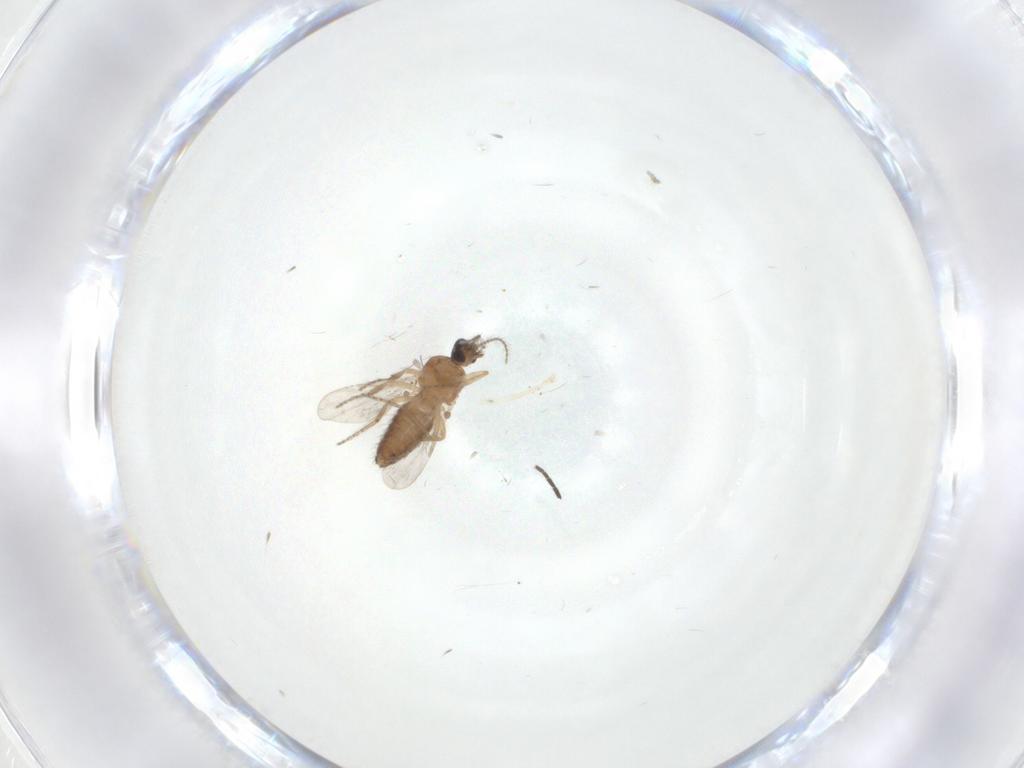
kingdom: Animalia
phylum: Arthropoda
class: Insecta
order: Diptera
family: Ceratopogonidae
